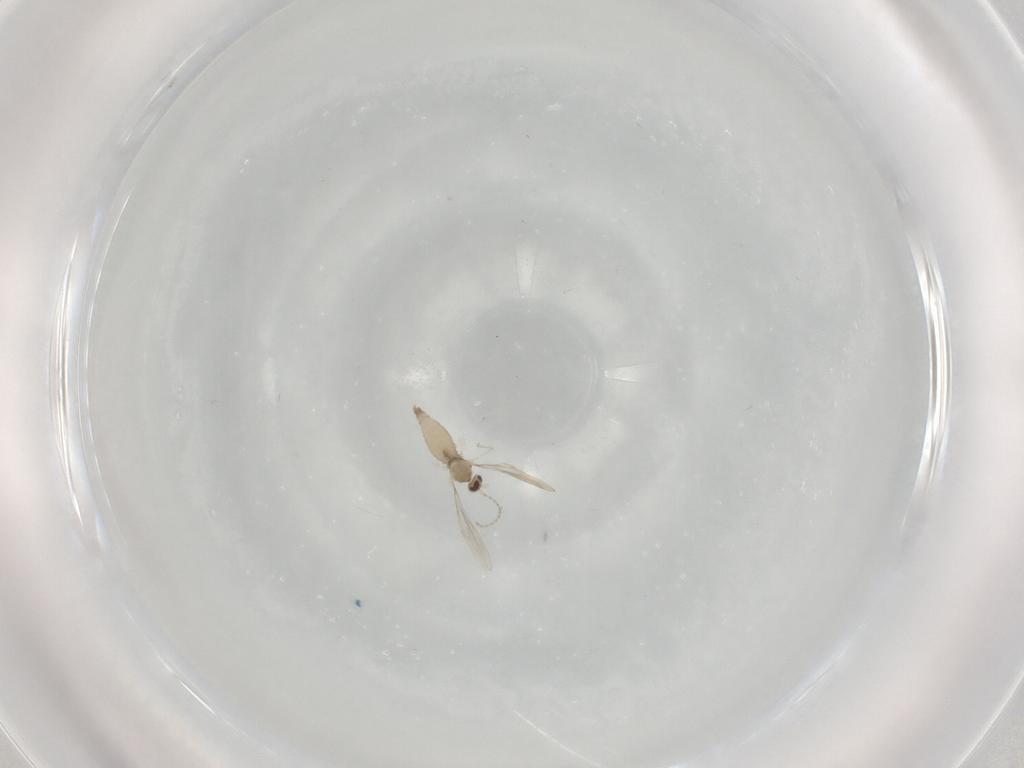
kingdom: Animalia
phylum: Arthropoda
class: Insecta
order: Diptera
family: Cecidomyiidae
